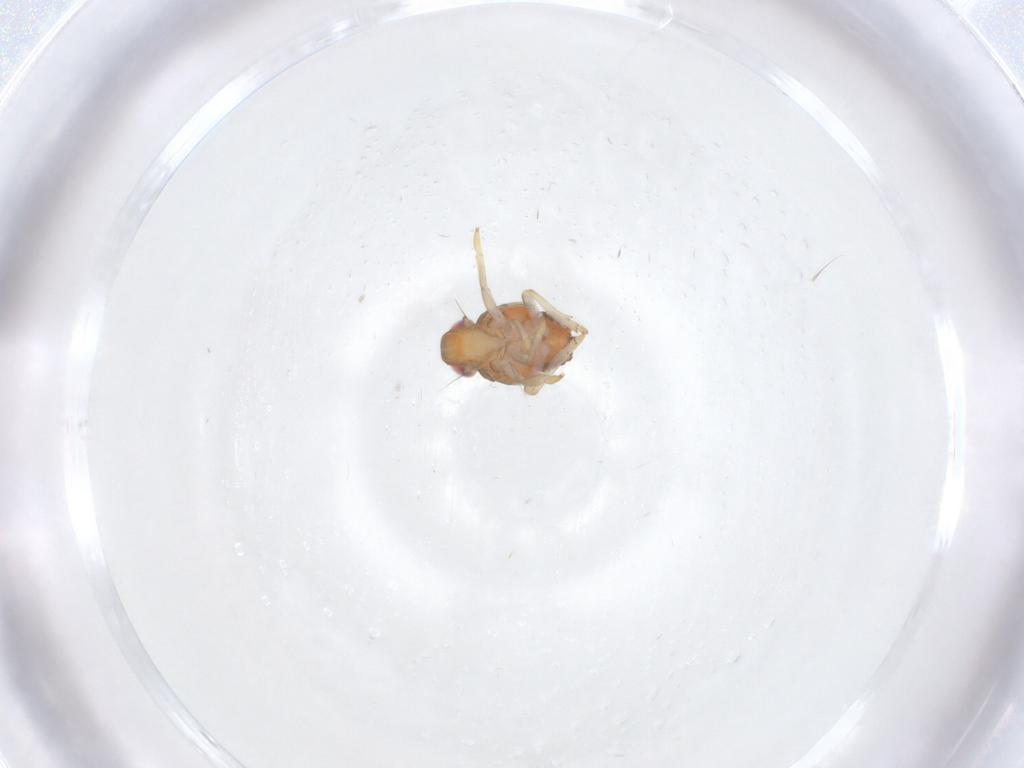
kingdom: Animalia
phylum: Arthropoda
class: Insecta
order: Hemiptera
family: Issidae
